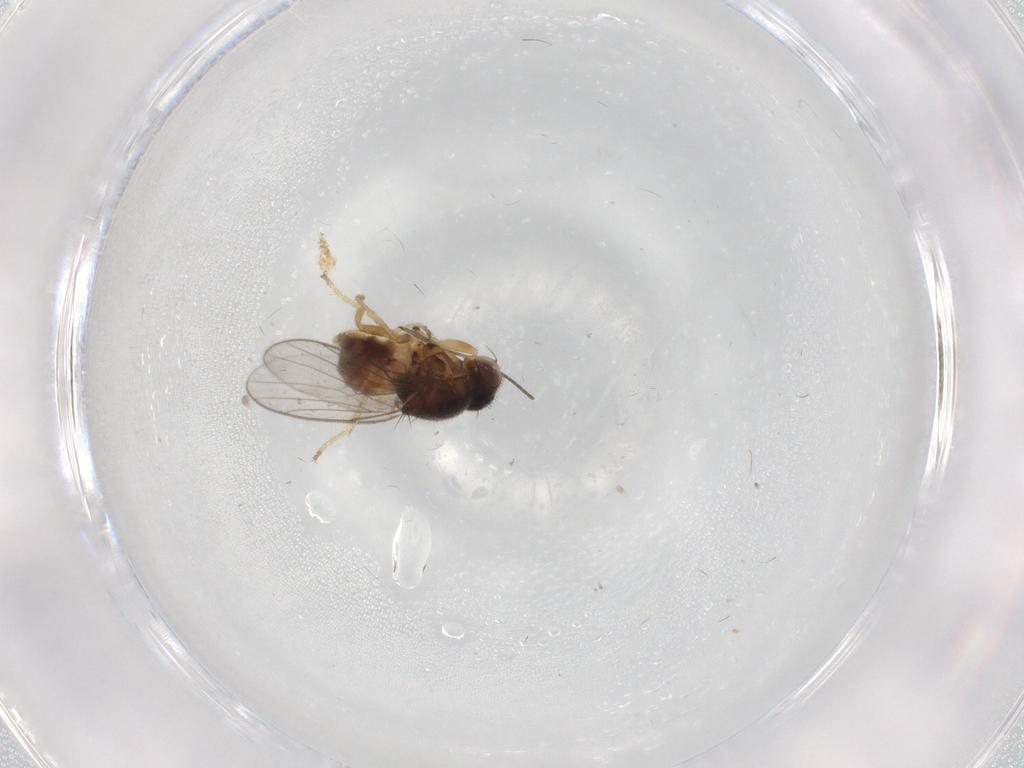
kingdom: Animalia
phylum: Arthropoda
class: Insecta
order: Diptera
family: Chloropidae
